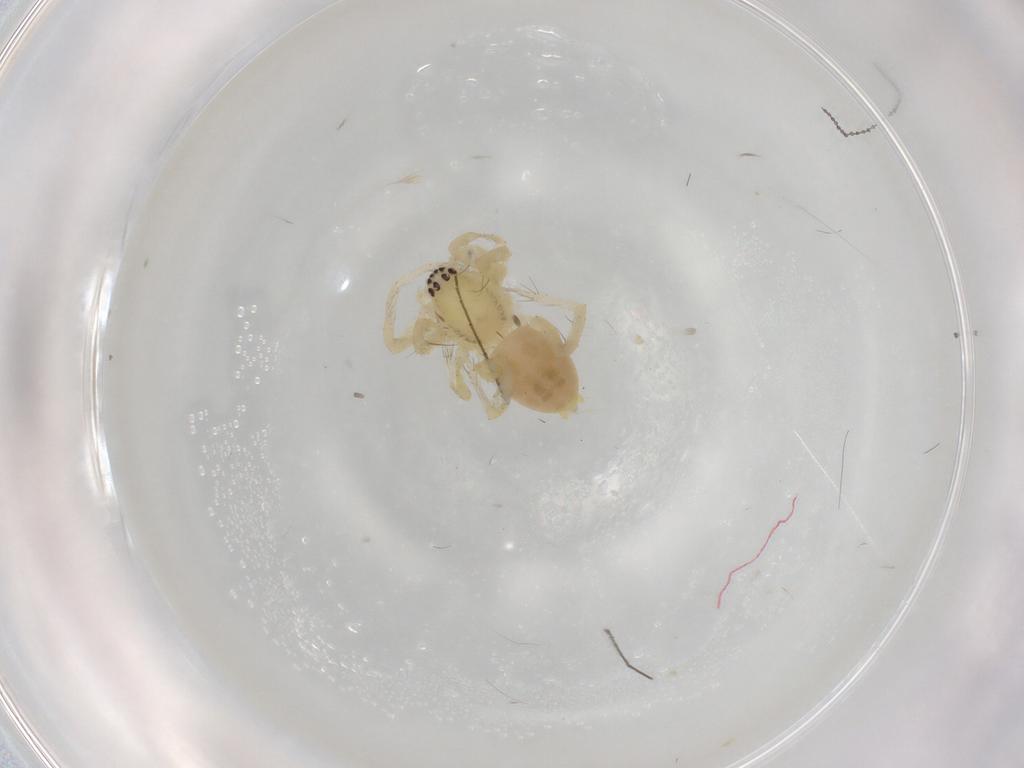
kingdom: Animalia
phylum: Arthropoda
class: Arachnida
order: Araneae
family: Anyphaenidae
